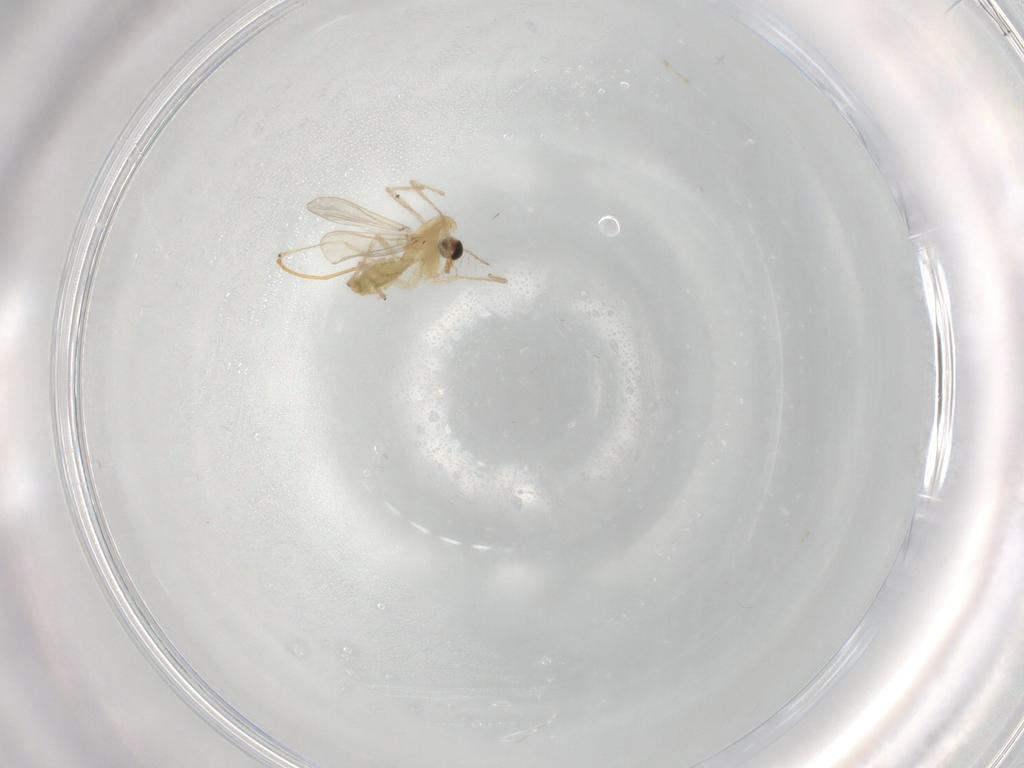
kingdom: Animalia
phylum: Arthropoda
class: Insecta
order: Diptera
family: Chironomidae
